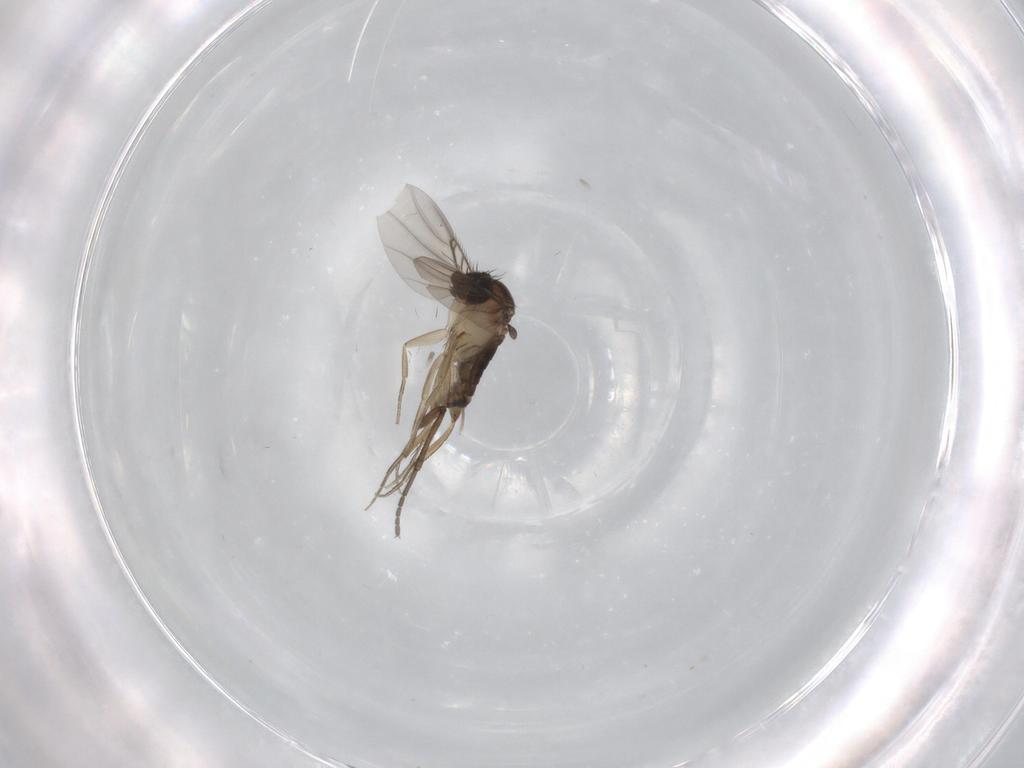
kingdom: Animalia
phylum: Arthropoda
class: Insecta
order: Diptera
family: Sciaridae
